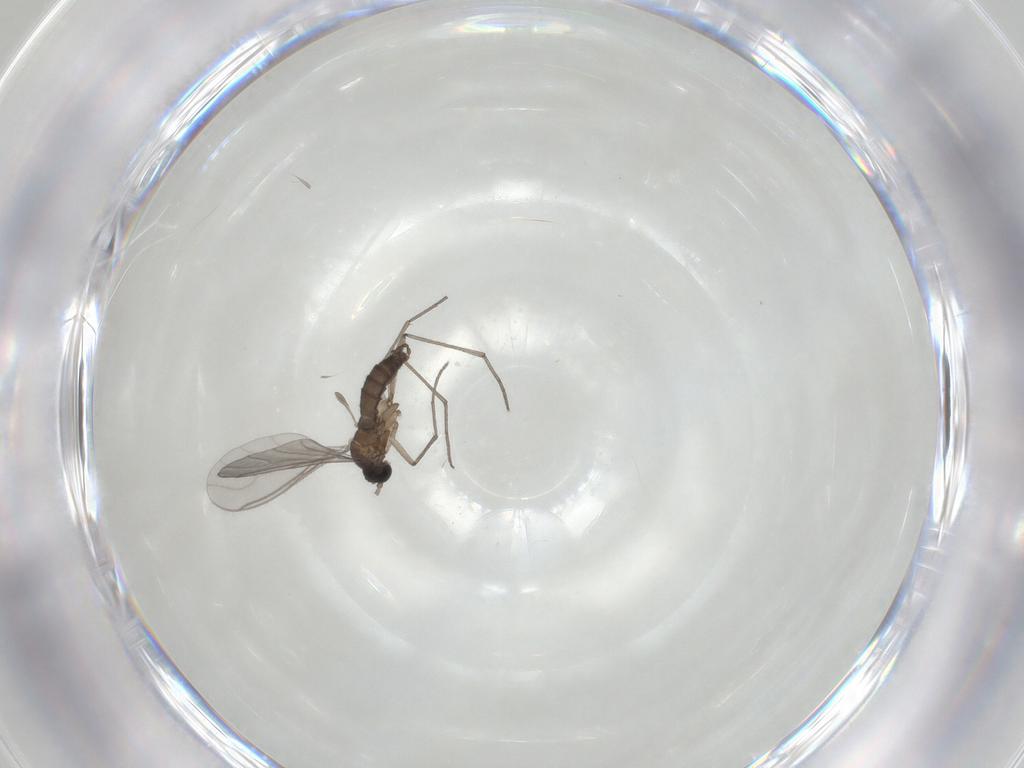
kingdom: Animalia
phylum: Arthropoda
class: Insecta
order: Diptera
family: Sciaridae
